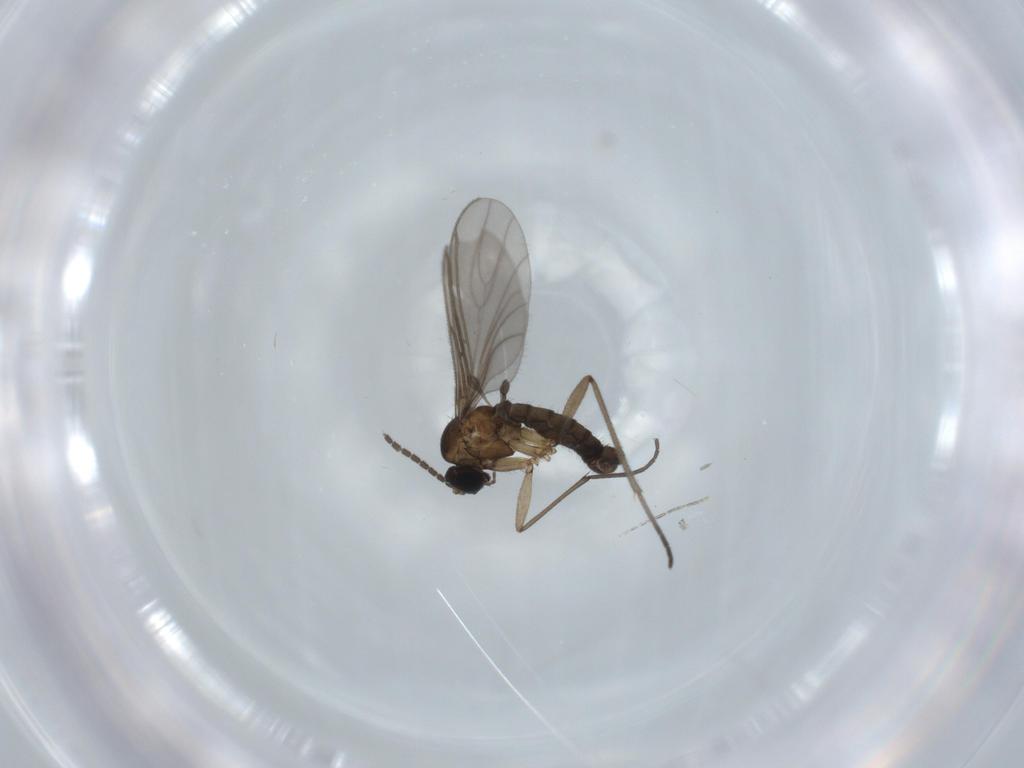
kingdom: Animalia
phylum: Arthropoda
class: Insecta
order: Diptera
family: Sciaridae
